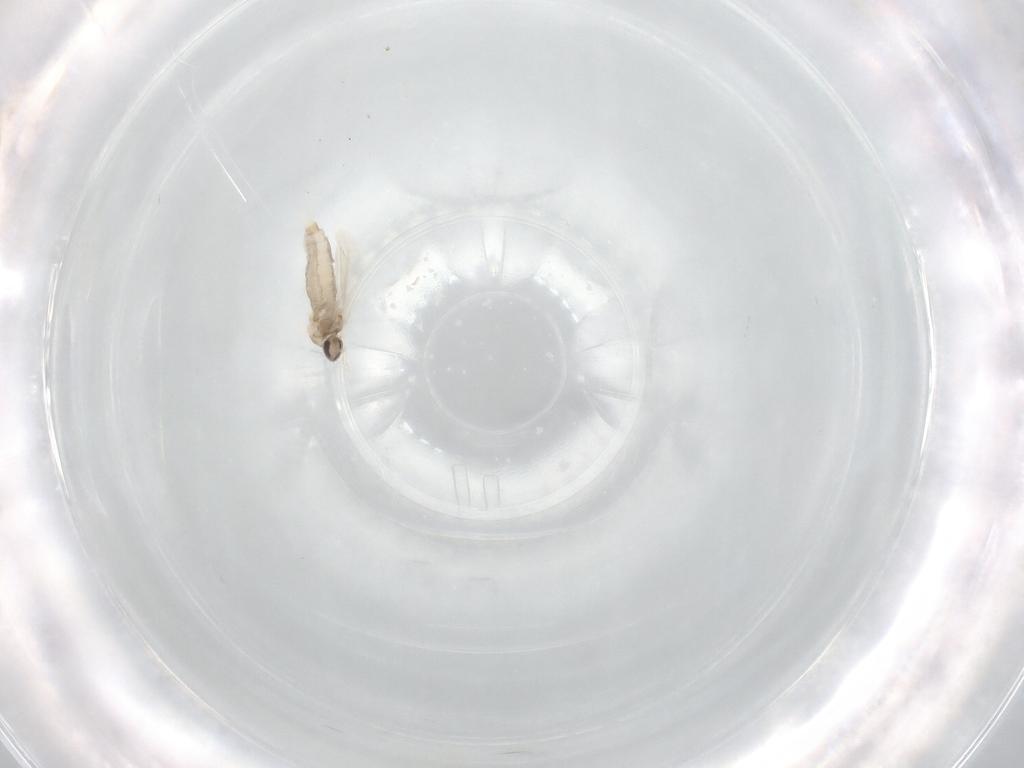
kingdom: Animalia
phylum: Arthropoda
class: Insecta
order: Diptera
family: Cecidomyiidae
